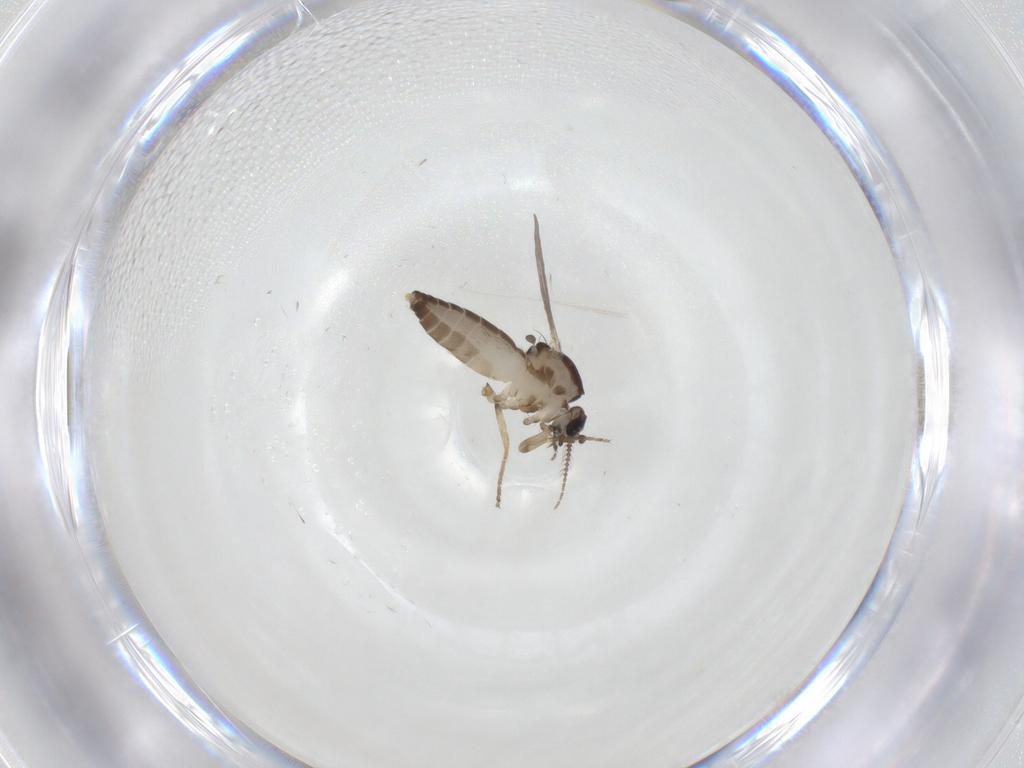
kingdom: Animalia
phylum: Arthropoda
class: Insecta
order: Diptera
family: Ceratopogonidae
